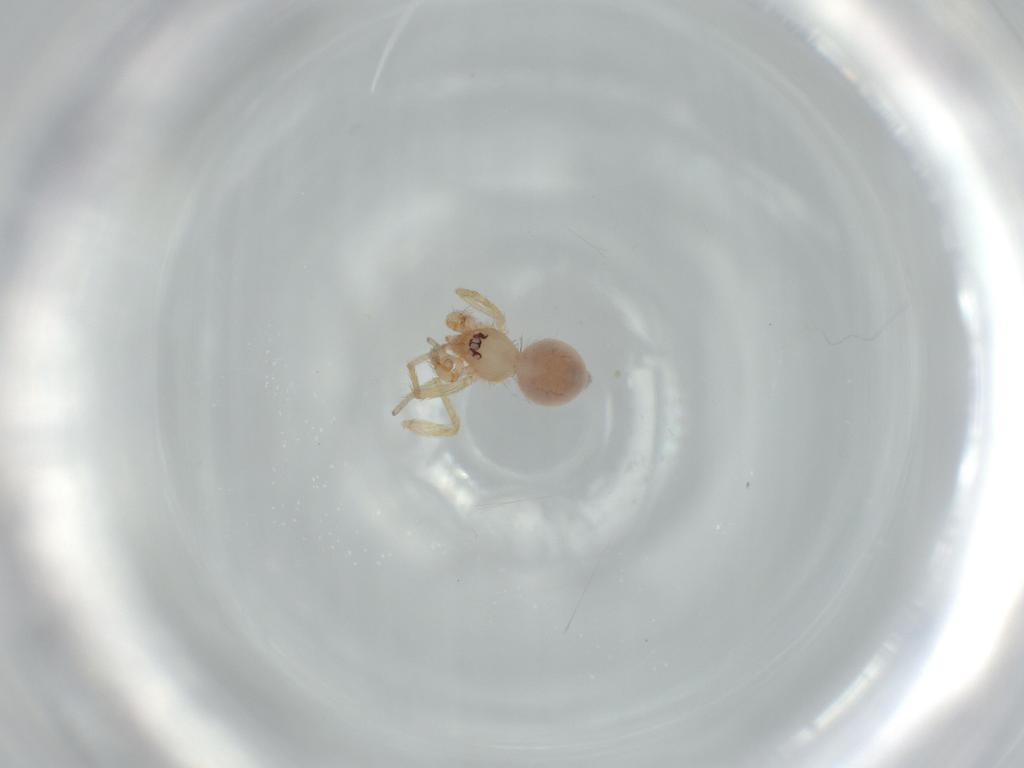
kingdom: Animalia
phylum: Arthropoda
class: Arachnida
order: Araneae
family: Oonopidae
